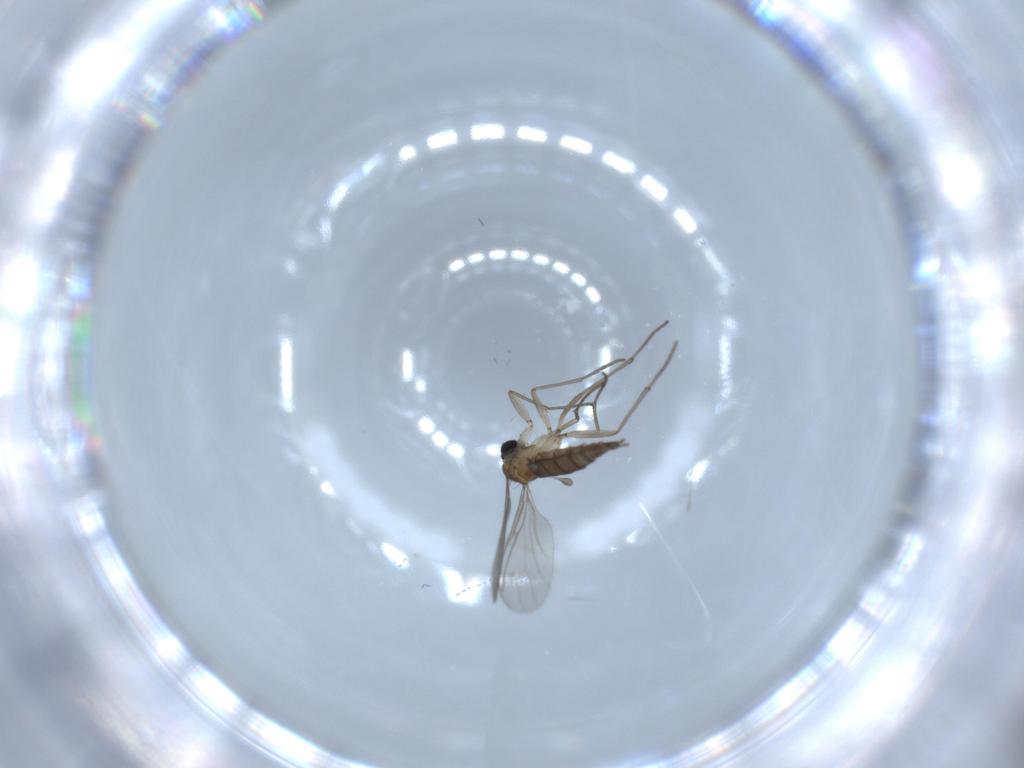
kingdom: Animalia
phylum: Arthropoda
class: Insecta
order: Diptera
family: Sciaridae
